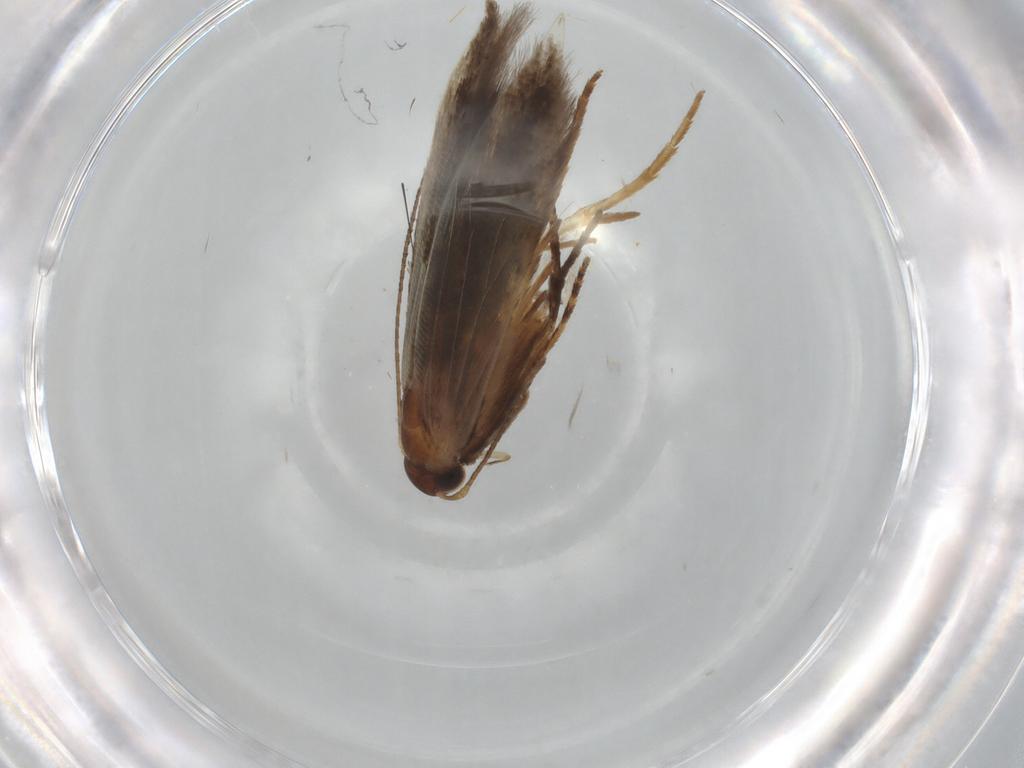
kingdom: Animalia
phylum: Arthropoda
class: Insecta
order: Lepidoptera
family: Gelechiidae
